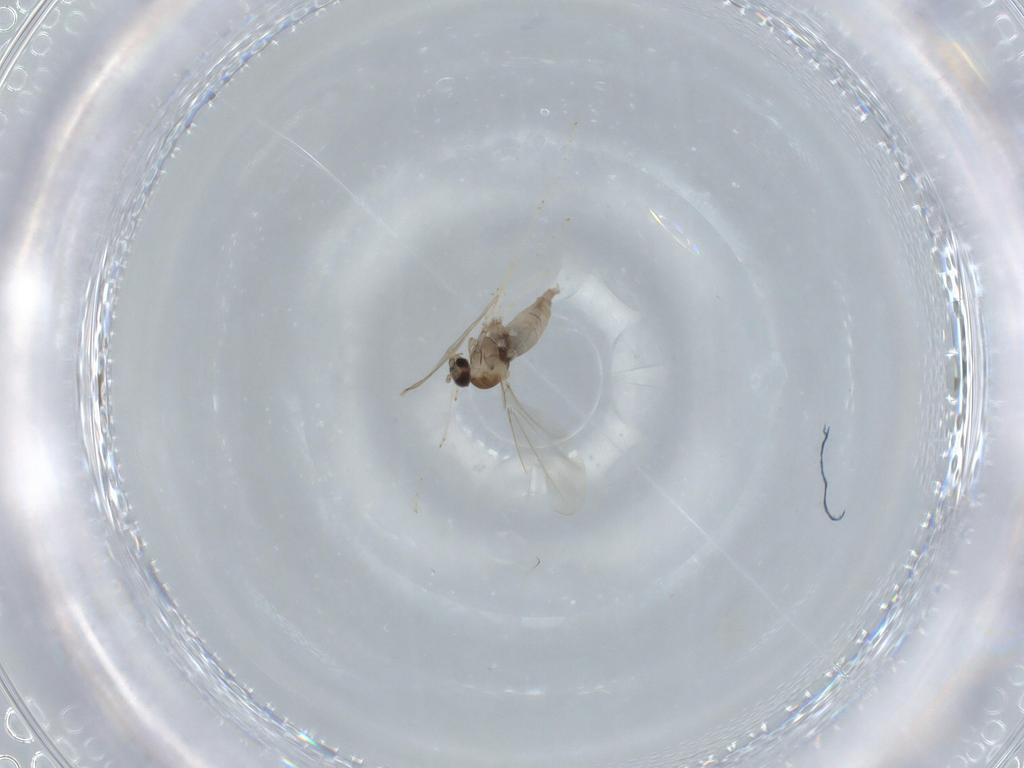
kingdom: Animalia
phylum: Arthropoda
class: Insecta
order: Diptera
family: Cecidomyiidae
